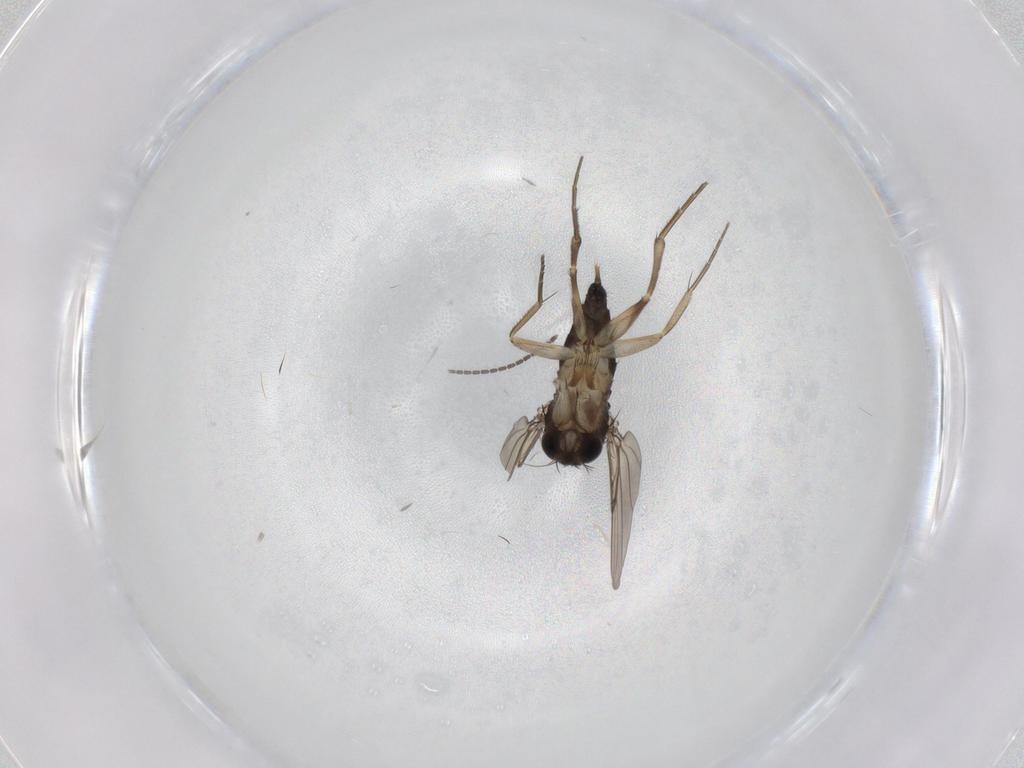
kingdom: Animalia
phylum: Arthropoda
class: Insecta
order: Diptera
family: Phoridae
